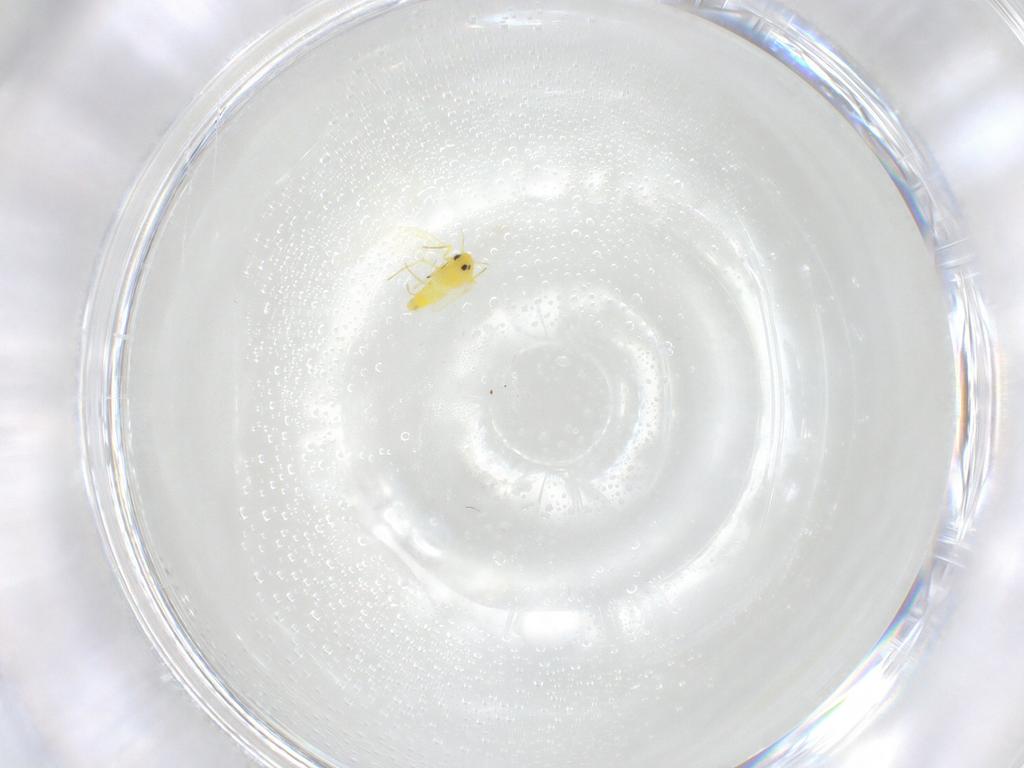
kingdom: Animalia
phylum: Arthropoda
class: Insecta
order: Hemiptera
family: Aleyrodidae
